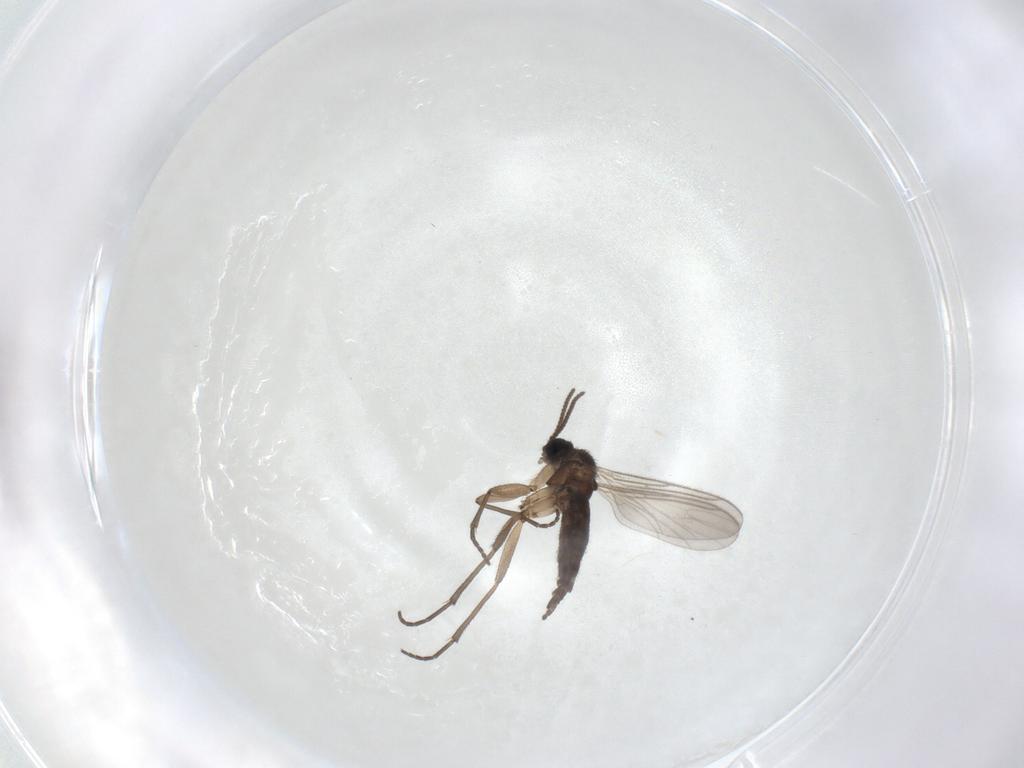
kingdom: Animalia
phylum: Arthropoda
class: Insecta
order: Diptera
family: Sciaridae
